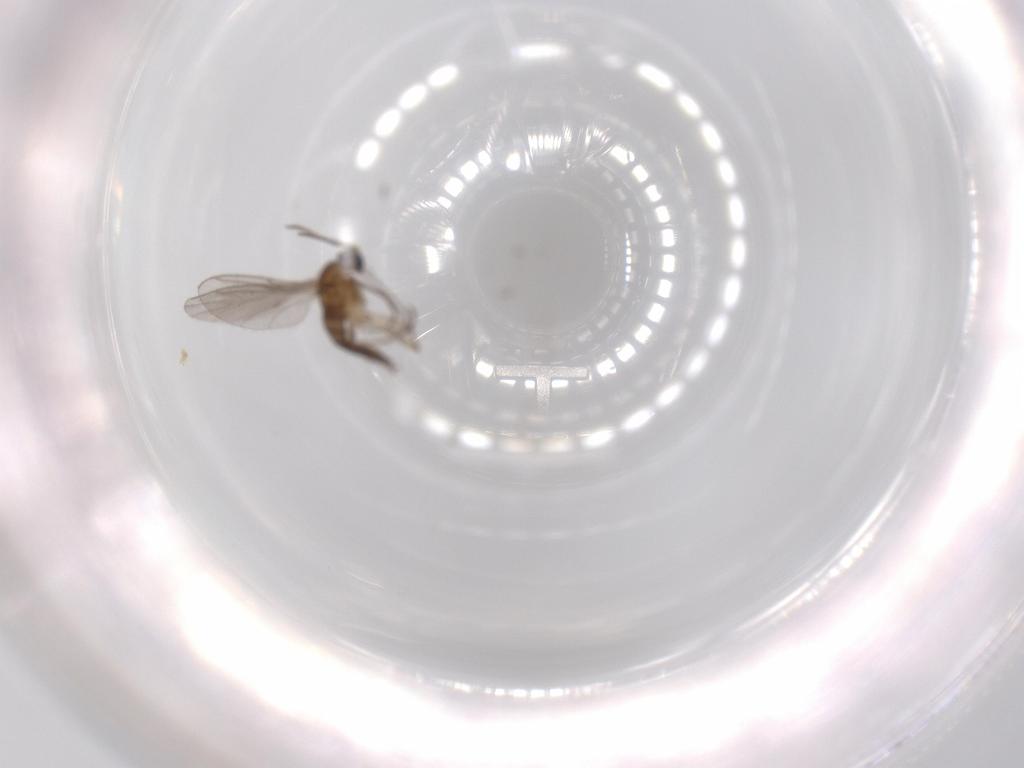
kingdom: Animalia
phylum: Arthropoda
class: Insecta
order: Diptera
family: Sciaridae
